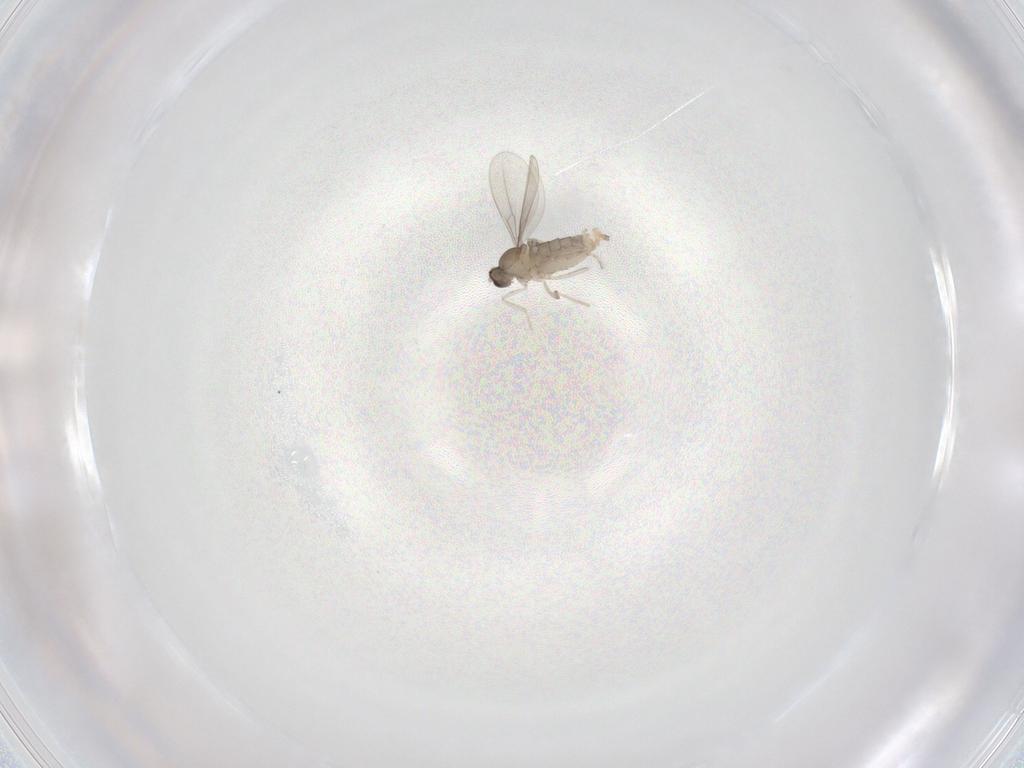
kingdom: Animalia
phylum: Arthropoda
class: Insecta
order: Diptera
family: Cecidomyiidae
